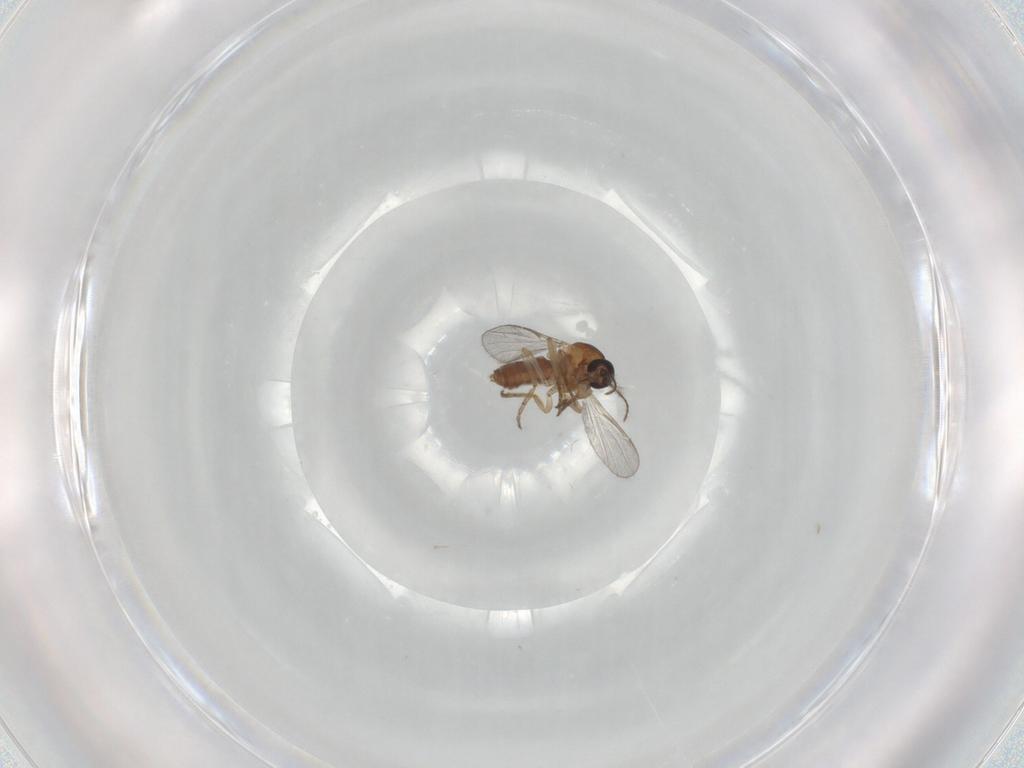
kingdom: Animalia
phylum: Arthropoda
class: Insecta
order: Diptera
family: Ceratopogonidae
